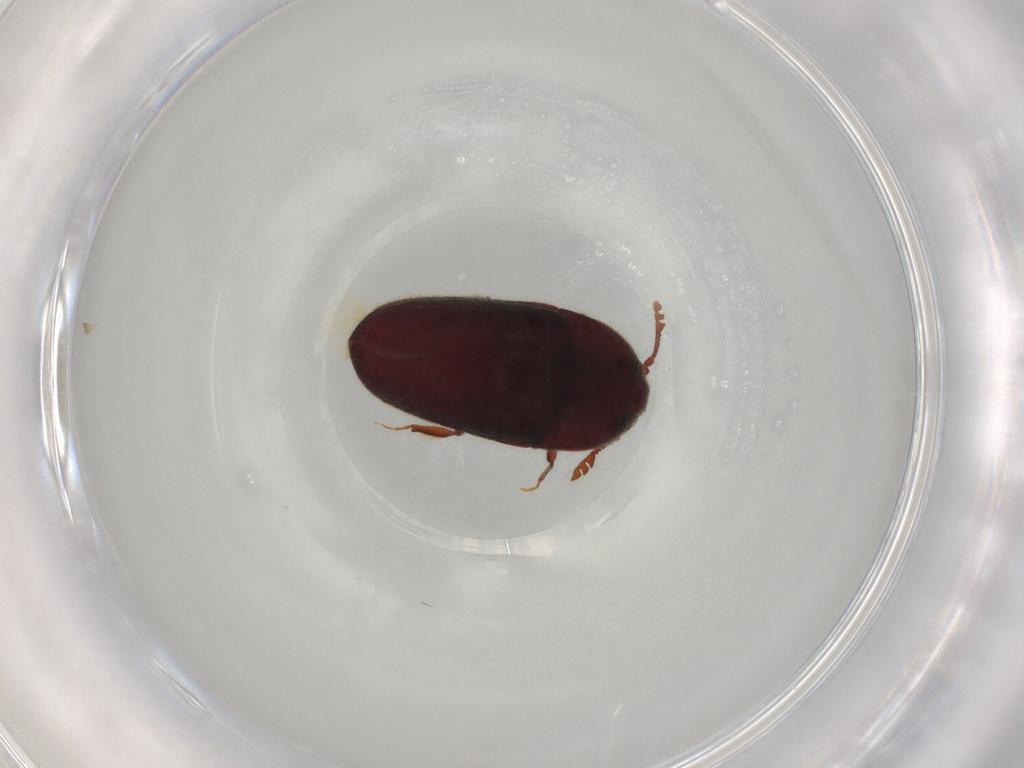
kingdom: Animalia
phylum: Arthropoda
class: Insecta
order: Coleoptera
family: Throscidae
